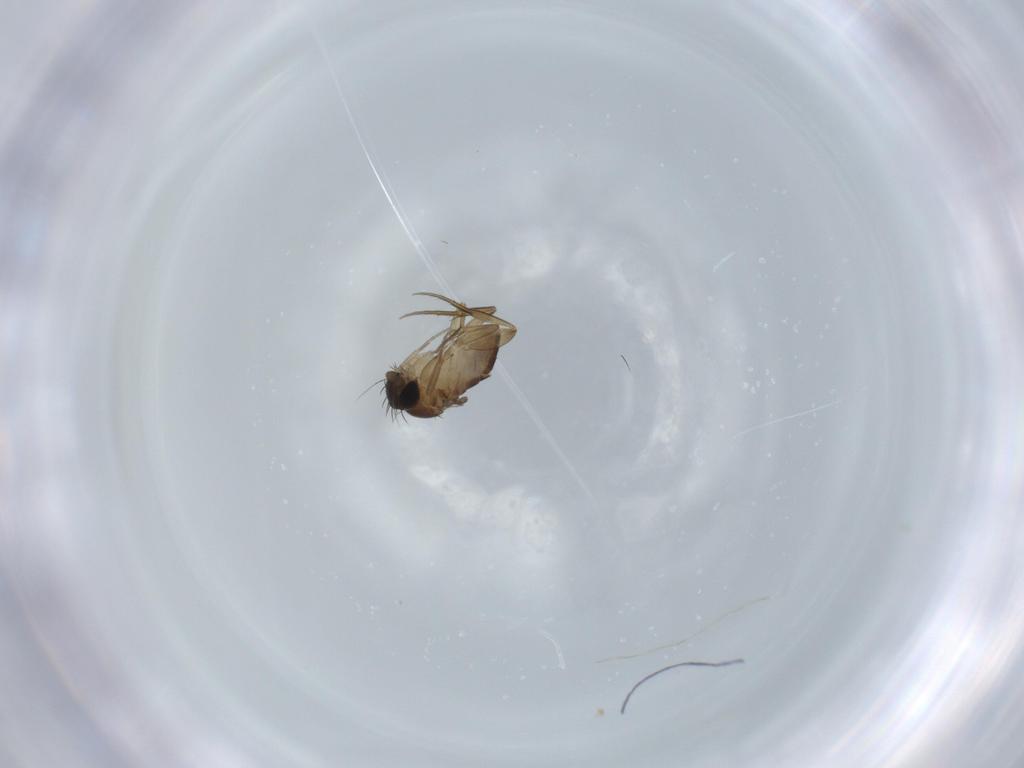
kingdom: Animalia
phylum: Arthropoda
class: Insecta
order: Diptera
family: Phoridae
